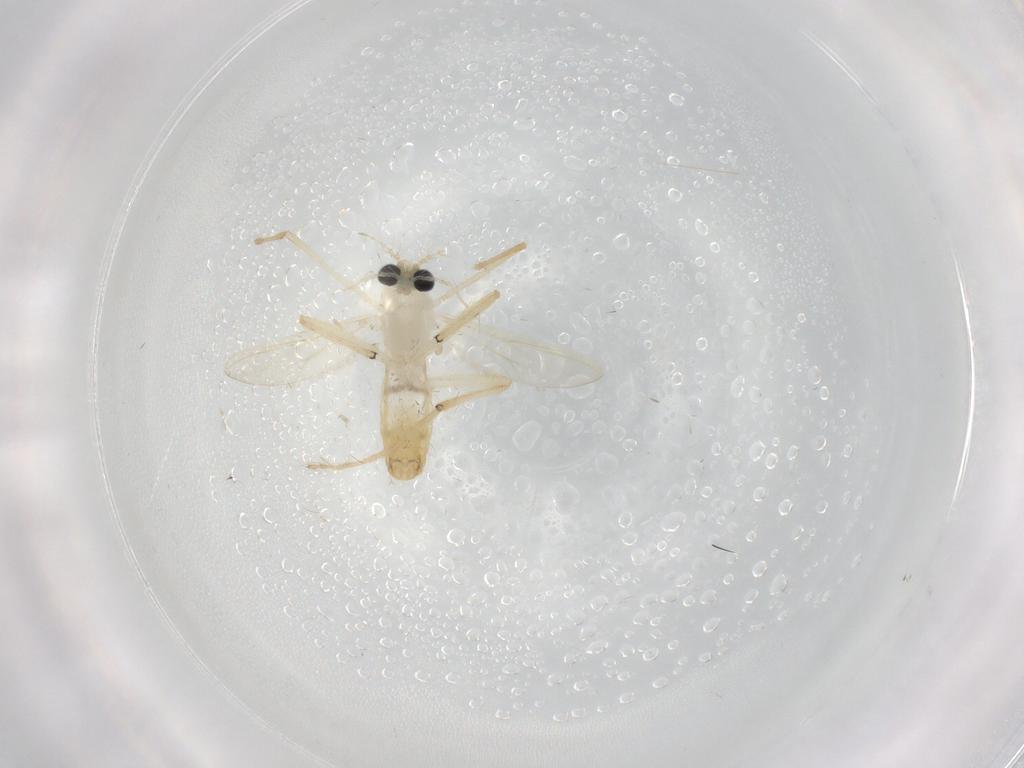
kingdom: Animalia
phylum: Arthropoda
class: Insecta
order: Diptera
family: Chironomidae
